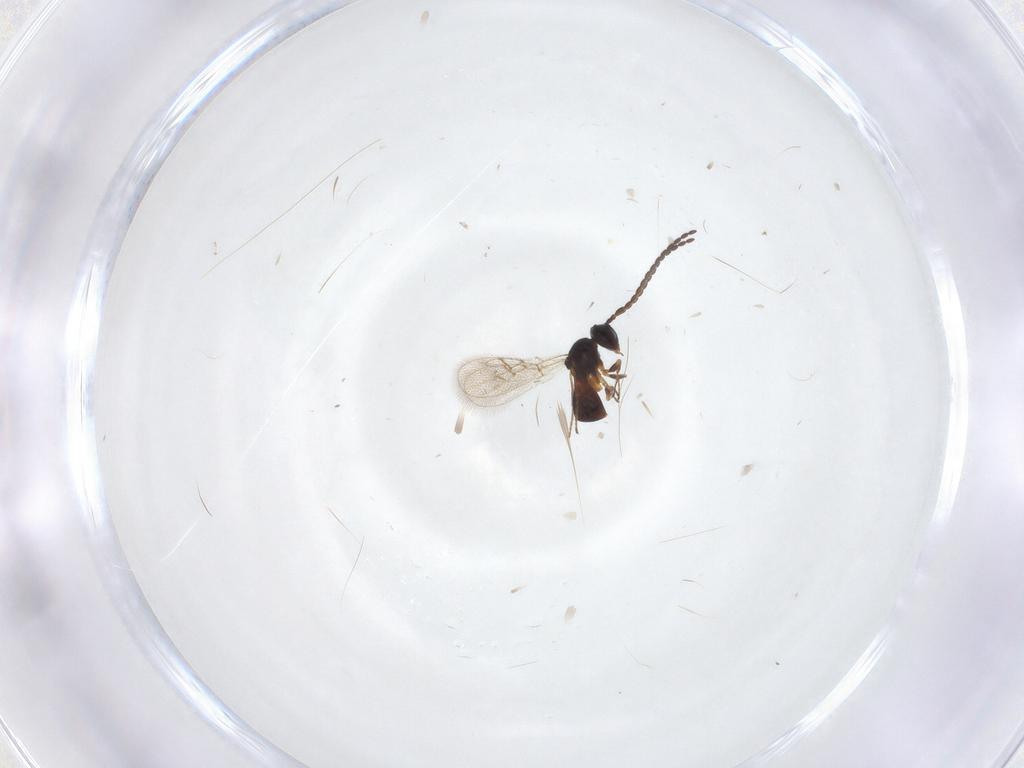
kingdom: Animalia
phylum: Arthropoda
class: Insecta
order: Hymenoptera
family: Figitidae
